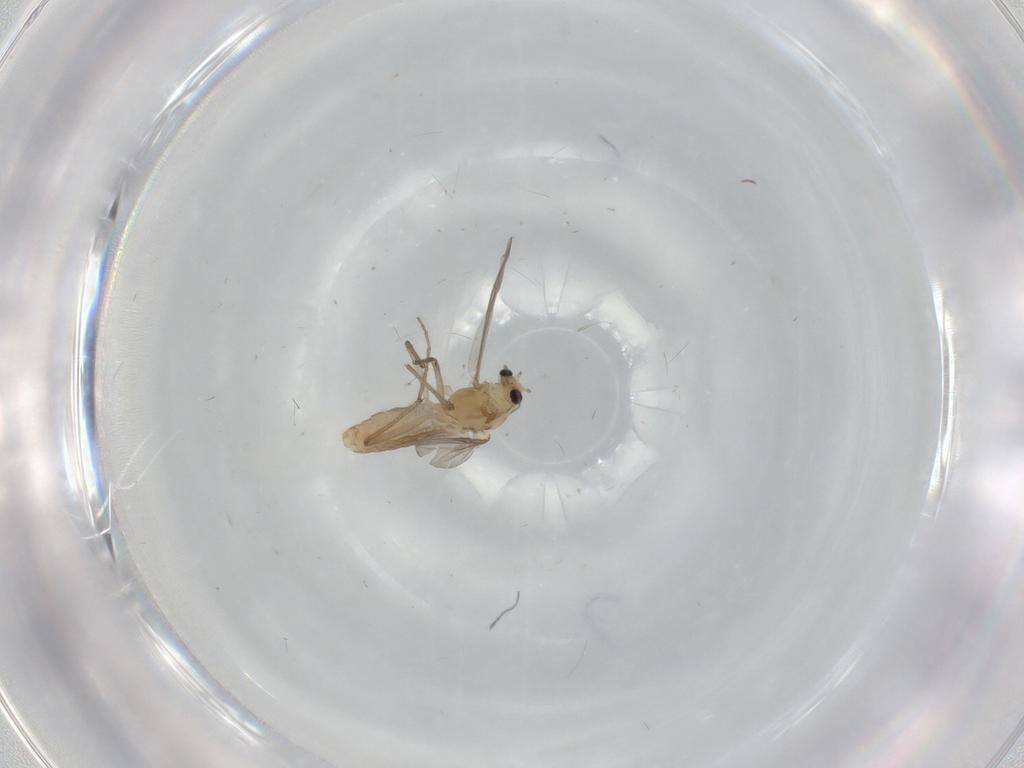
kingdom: Animalia
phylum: Arthropoda
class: Insecta
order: Diptera
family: Chironomidae
